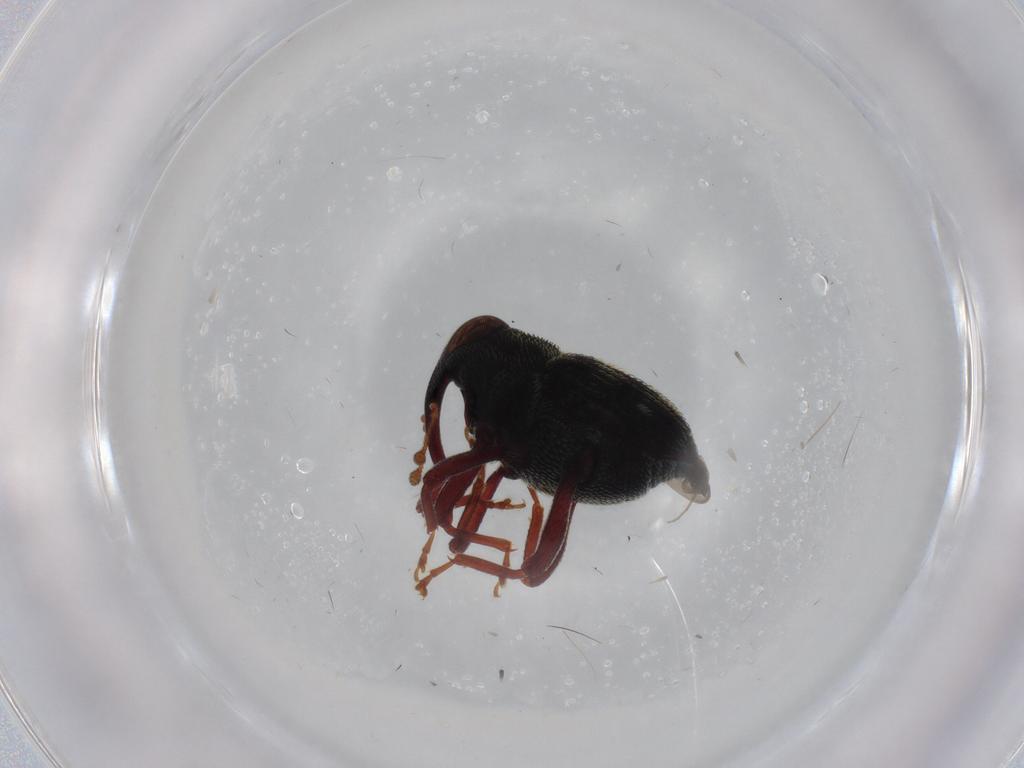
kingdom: Animalia
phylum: Arthropoda
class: Insecta
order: Coleoptera
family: Curculionidae
